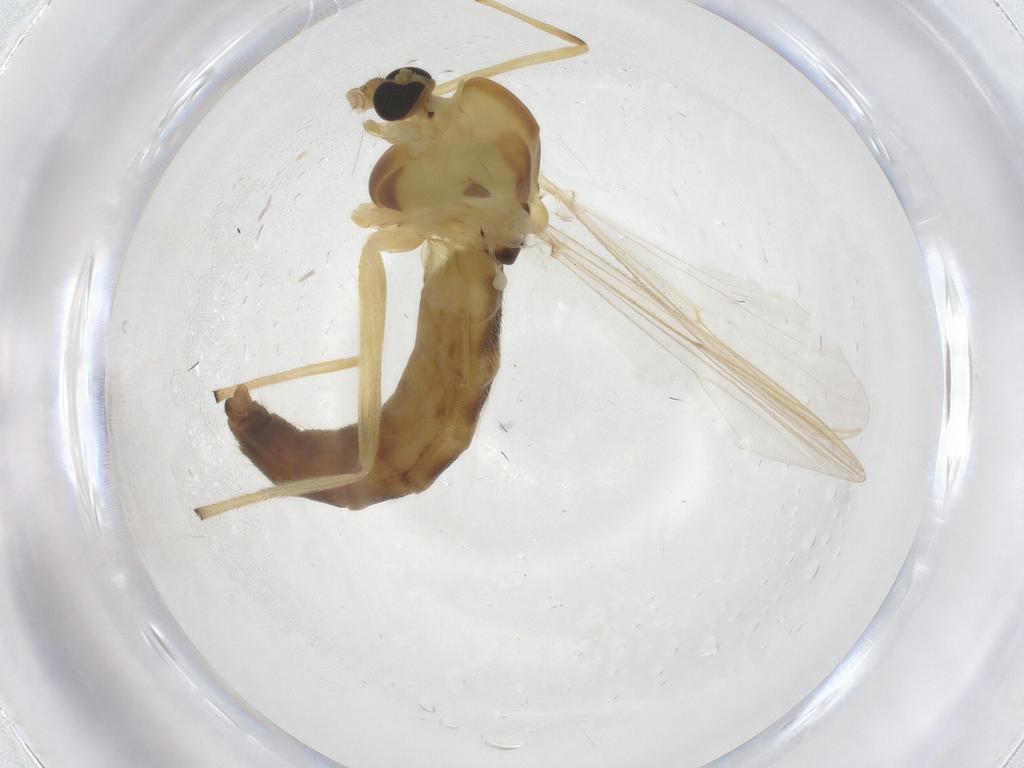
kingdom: Animalia
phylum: Arthropoda
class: Insecta
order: Diptera
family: Chironomidae
